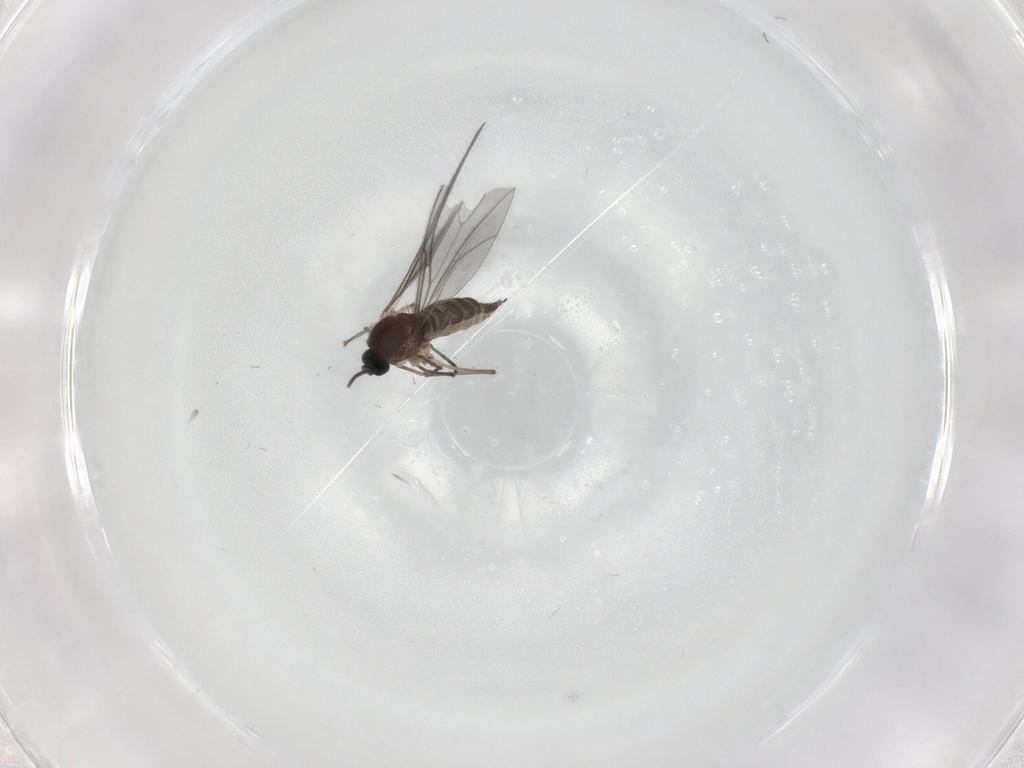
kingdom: Animalia
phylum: Arthropoda
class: Insecta
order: Diptera
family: Sciaridae
